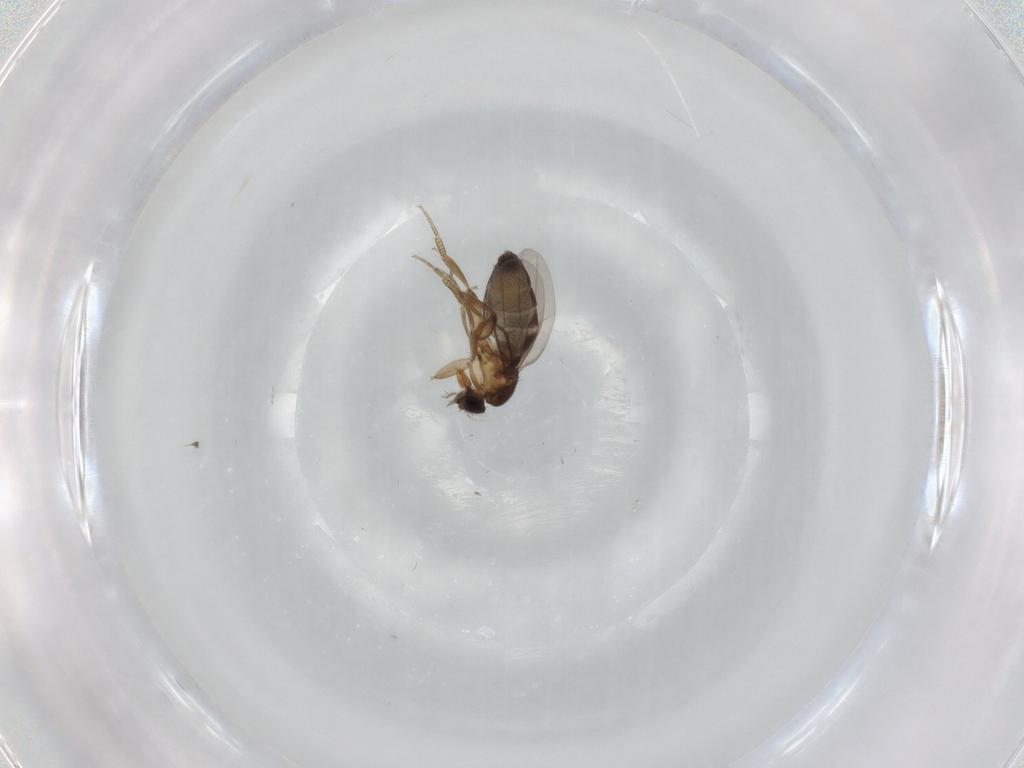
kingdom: Animalia
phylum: Arthropoda
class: Insecta
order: Diptera
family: Phoridae
